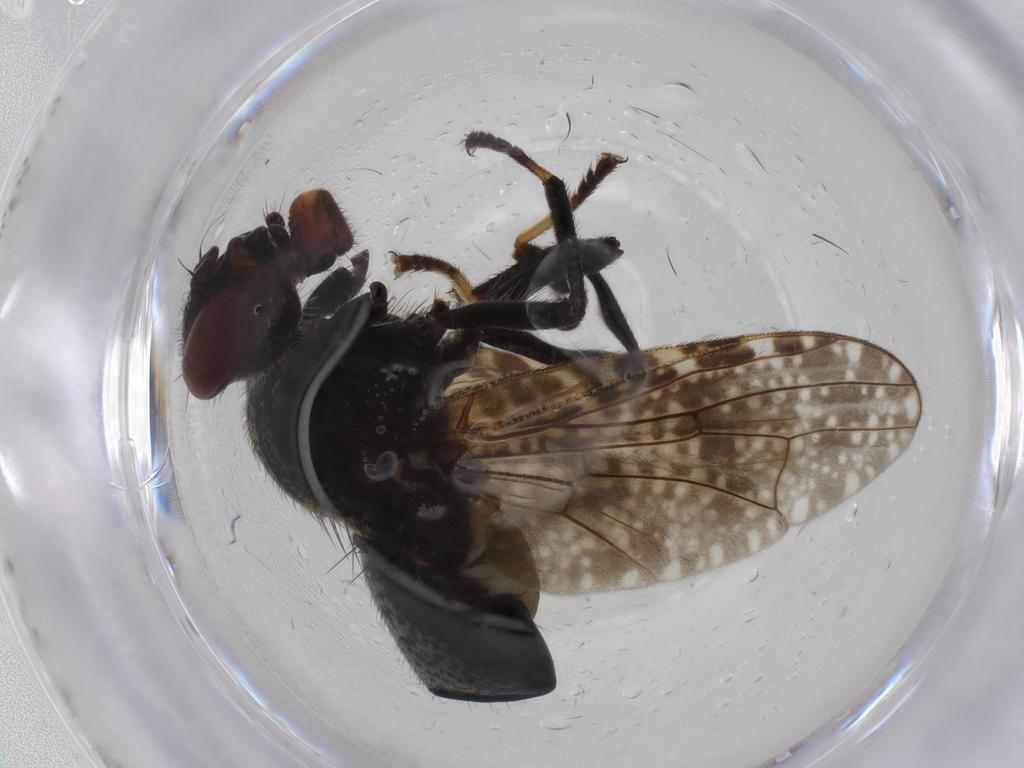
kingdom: Animalia
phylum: Arthropoda
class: Insecta
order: Diptera
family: Platystomatidae
